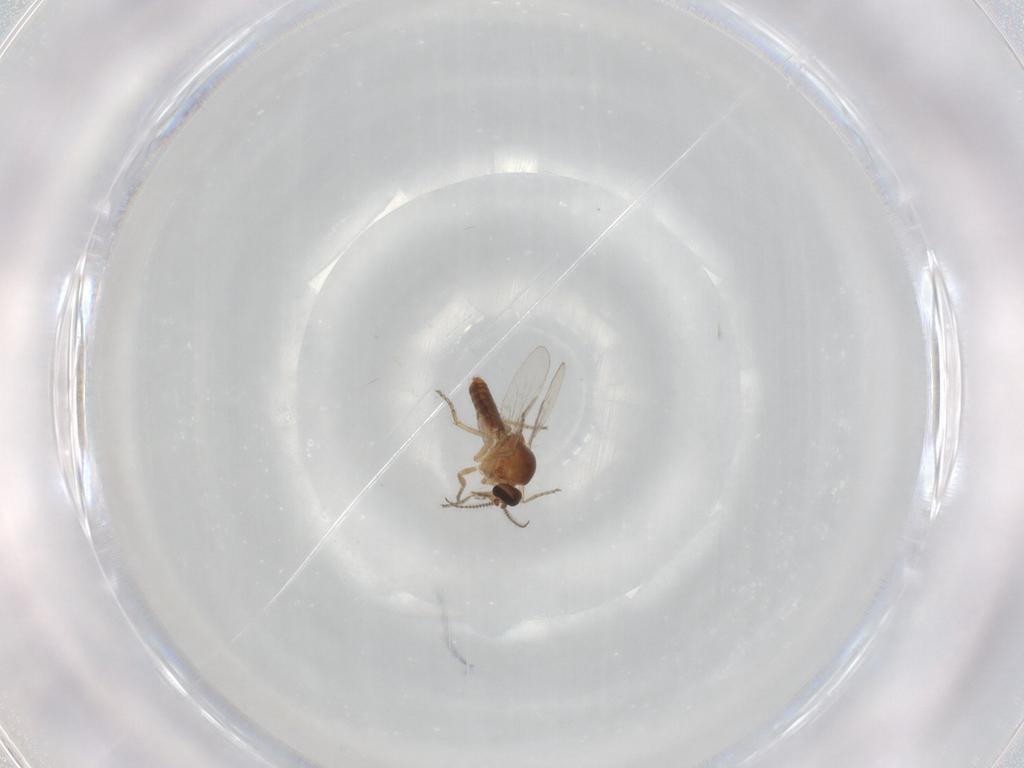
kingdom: Animalia
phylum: Arthropoda
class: Insecta
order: Diptera
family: Ceratopogonidae
